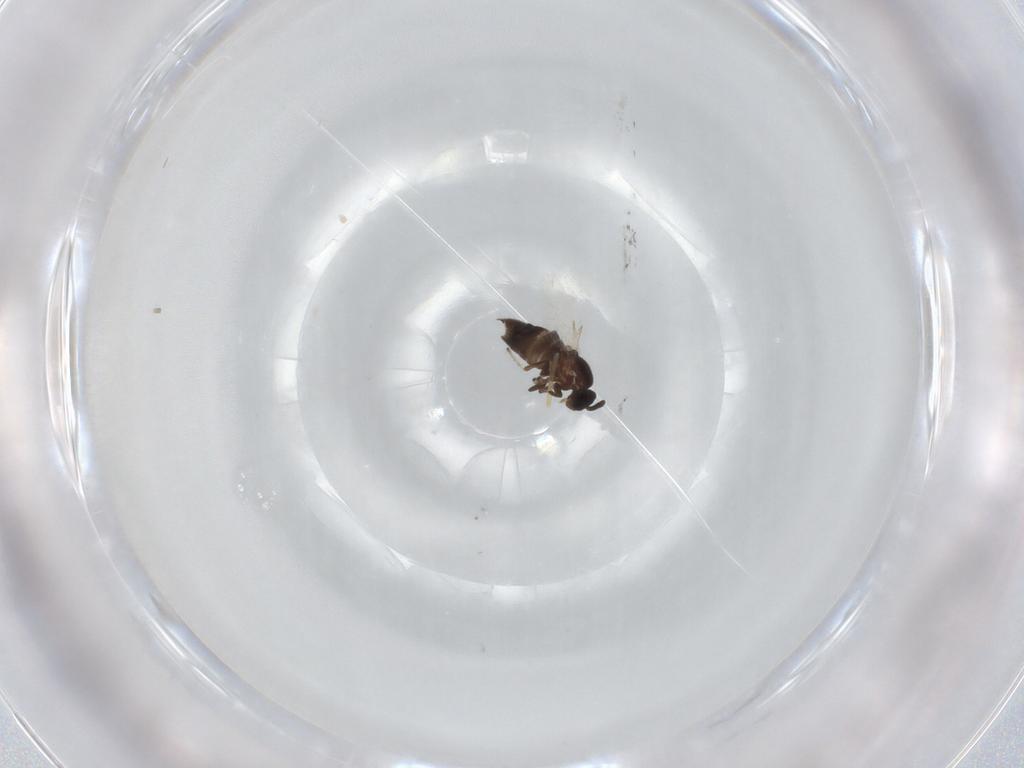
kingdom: Animalia
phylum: Arthropoda
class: Insecta
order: Diptera
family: Scatopsidae
